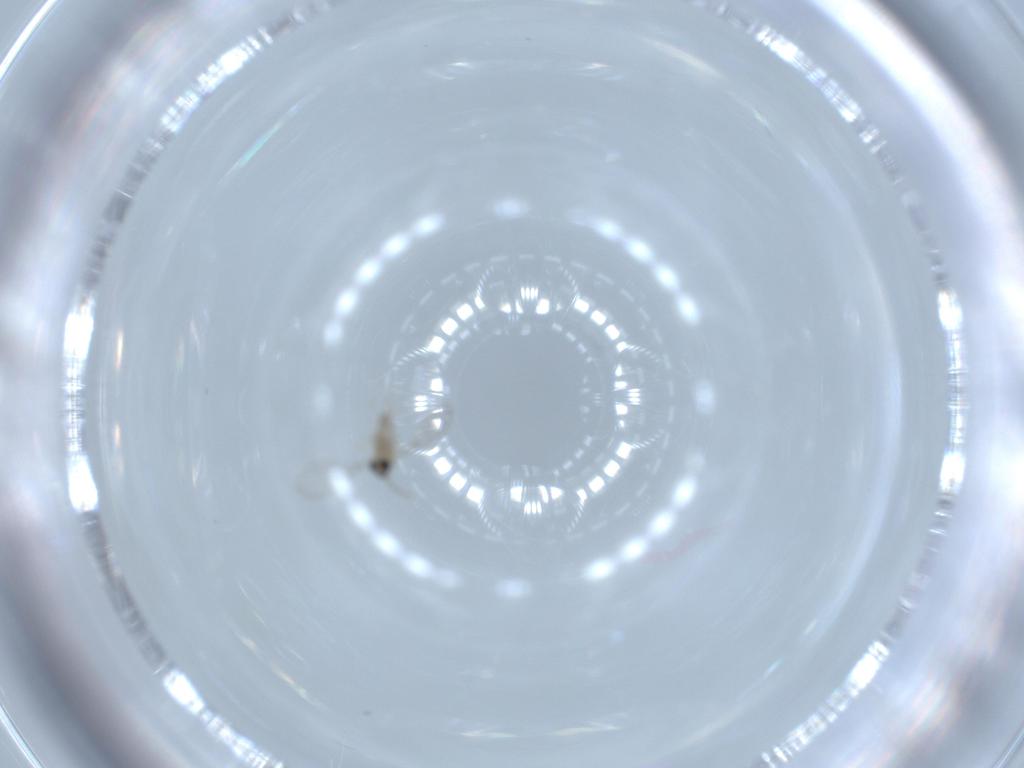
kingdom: Animalia
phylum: Arthropoda
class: Insecta
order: Diptera
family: Cecidomyiidae
